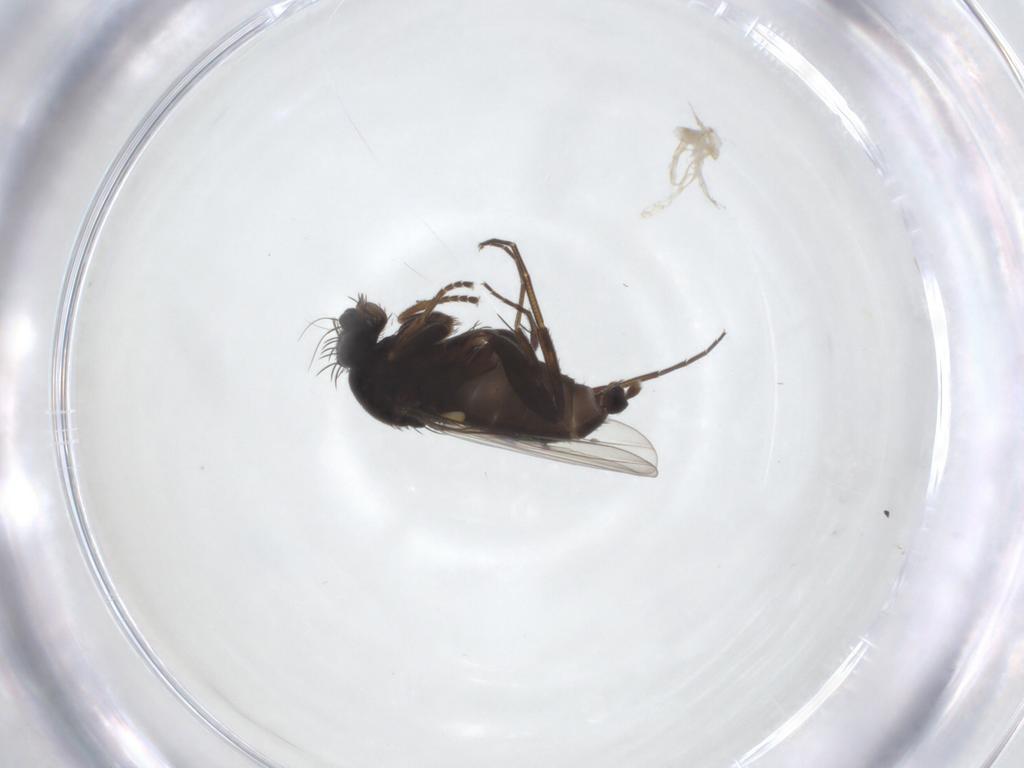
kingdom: Animalia
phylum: Arthropoda
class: Insecta
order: Diptera
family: Phoridae
